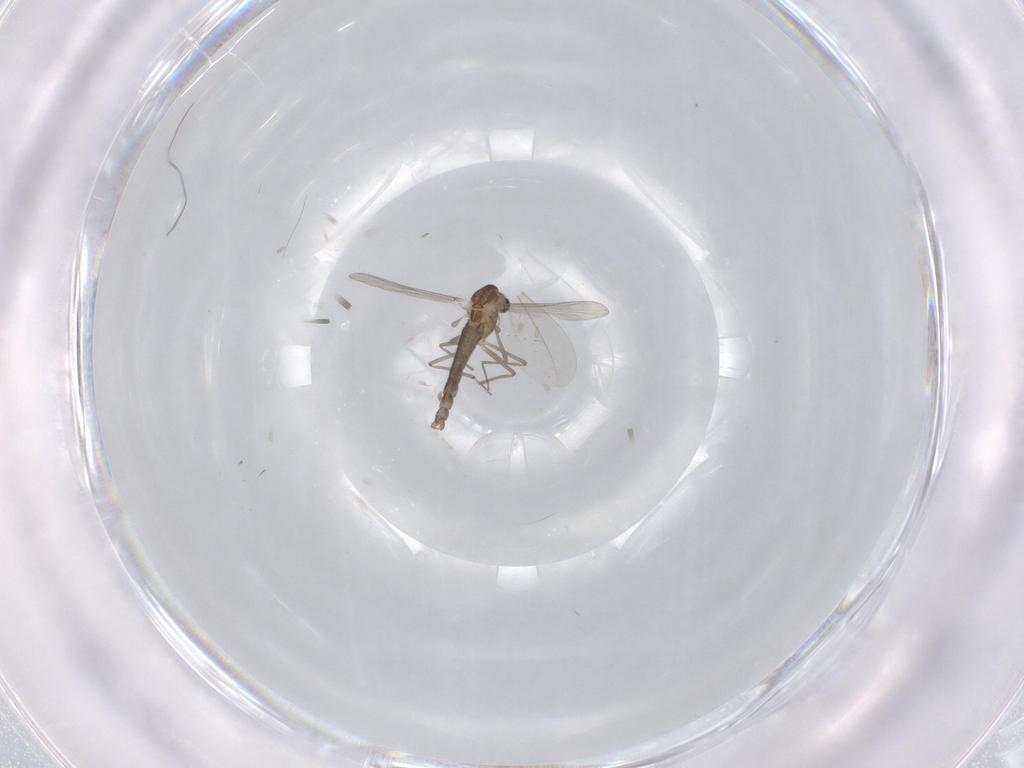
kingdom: Animalia
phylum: Arthropoda
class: Insecta
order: Diptera
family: Chironomidae
